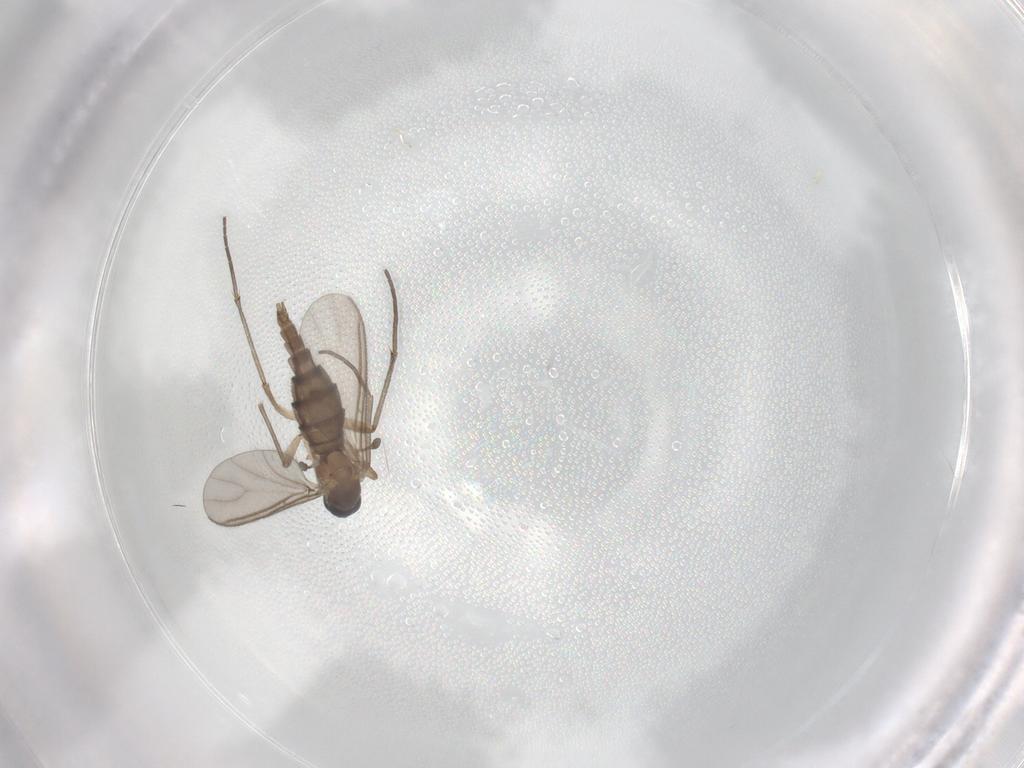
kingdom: Animalia
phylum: Arthropoda
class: Insecta
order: Diptera
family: Sciaridae
